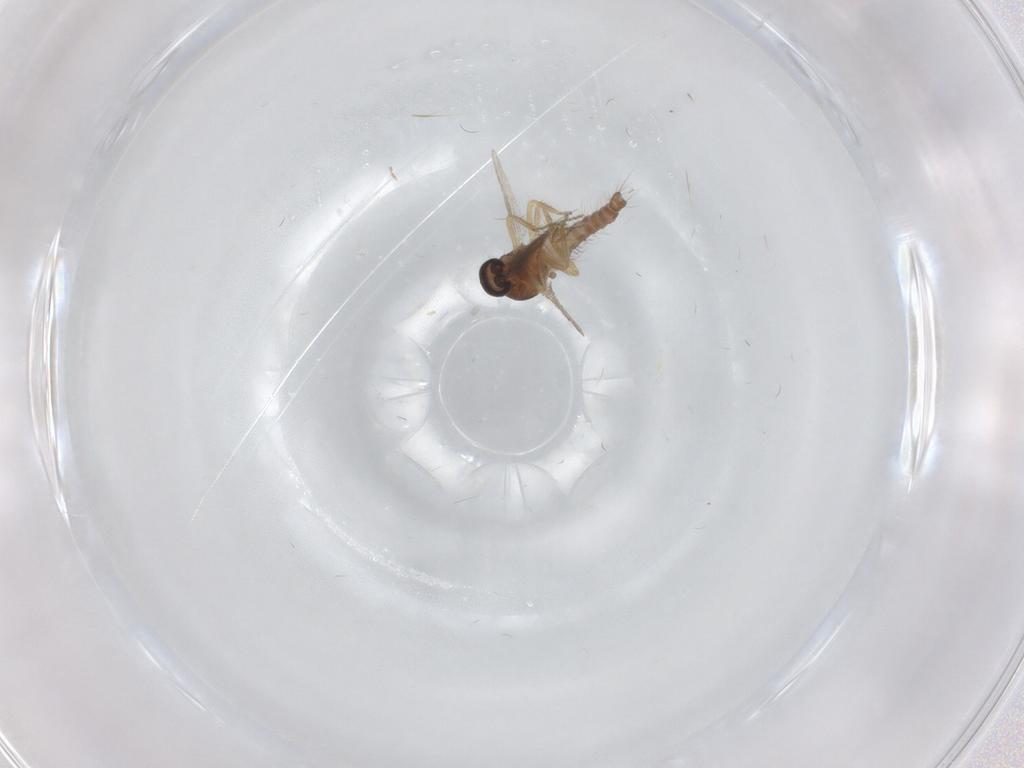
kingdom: Animalia
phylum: Arthropoda
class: Insecta
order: Diptera
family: Ceratopogonidae
